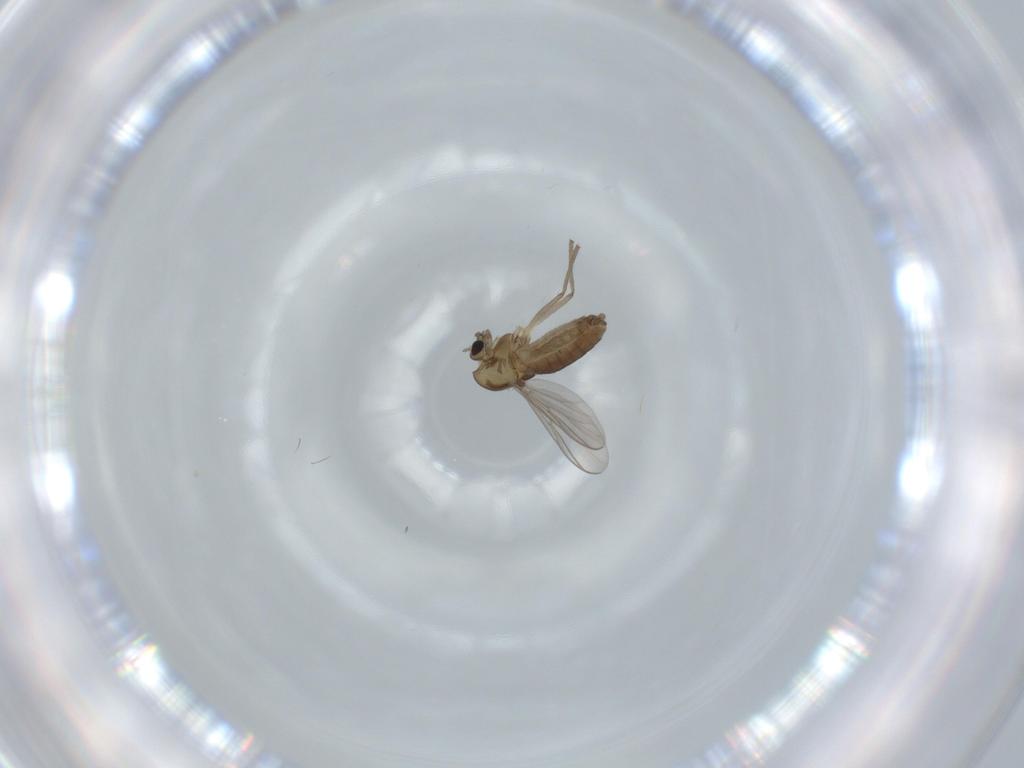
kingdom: Animalia
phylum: Arthropoda
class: Insecta
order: Diptera
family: Chironomidae
